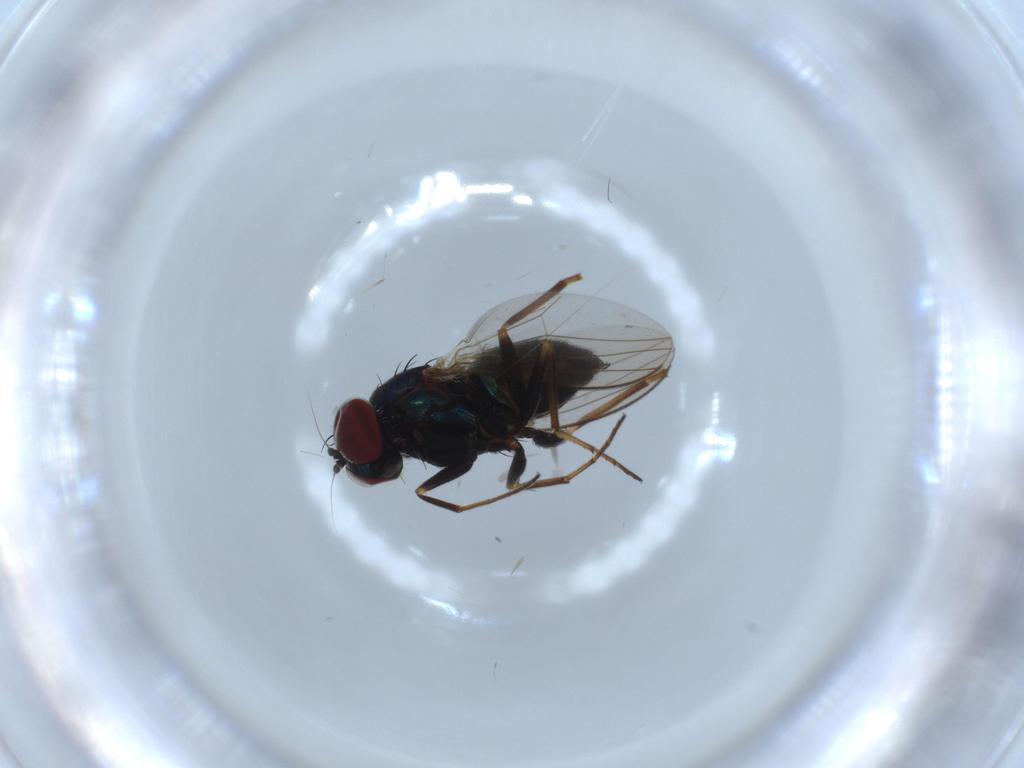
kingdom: Animalia
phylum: Arthropoda
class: Insecta
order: Diptera
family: Dolichopodidae
